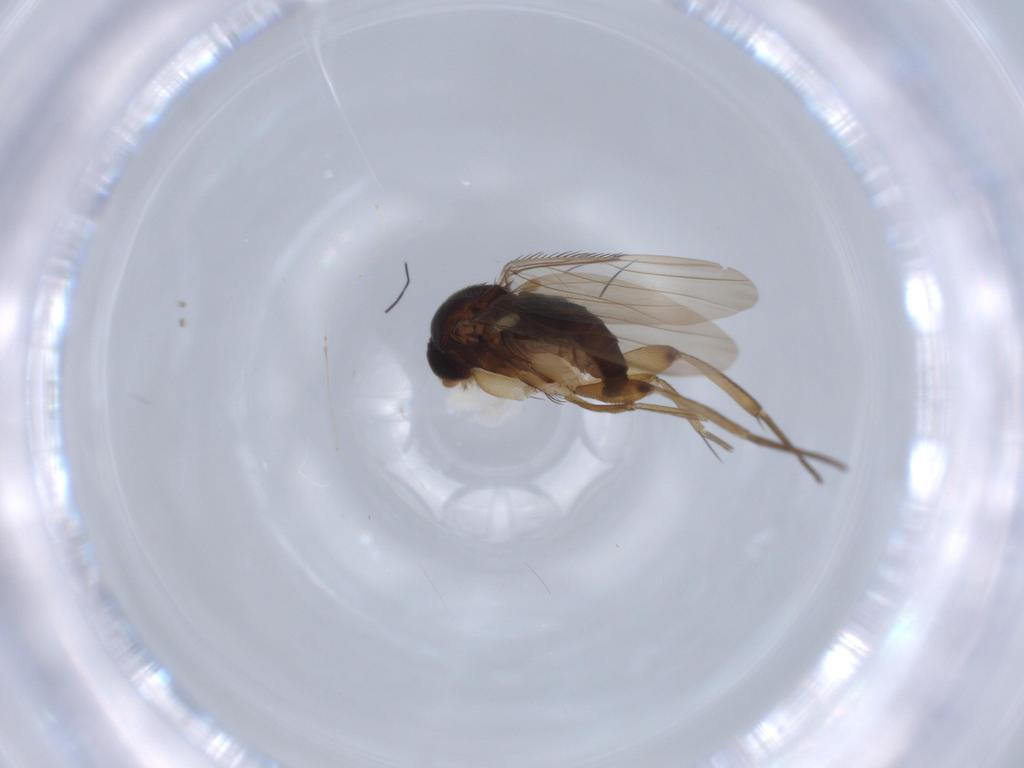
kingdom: Animalia
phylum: Arthropoda
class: Insecta
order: Diptera
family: Phoridae
